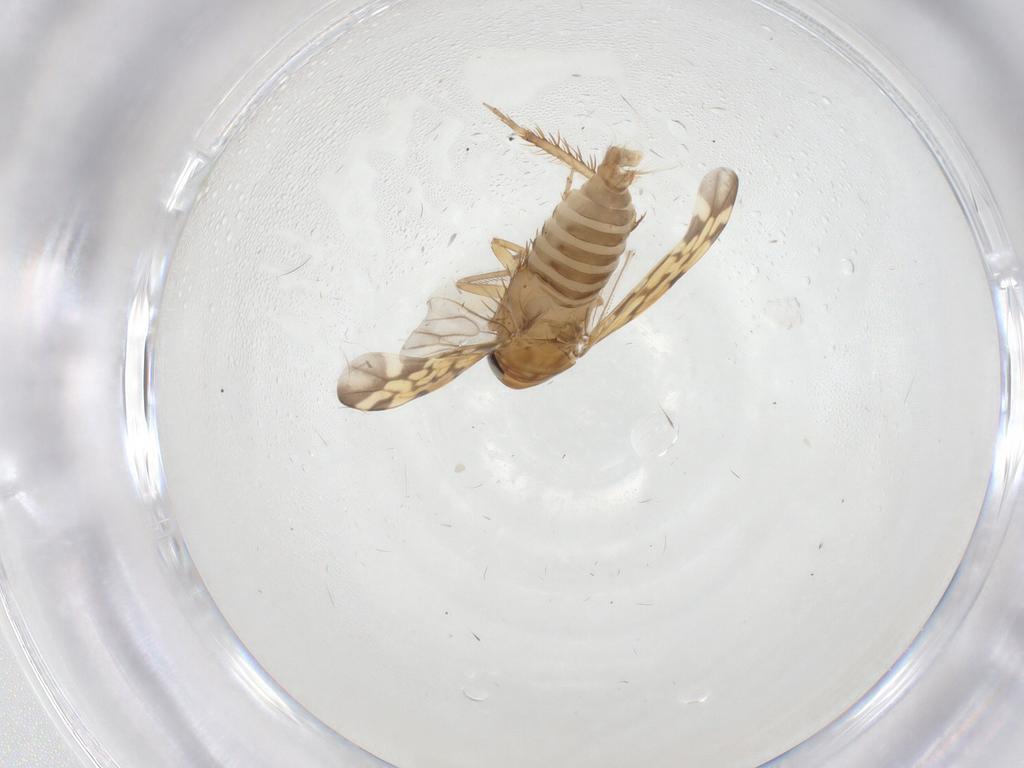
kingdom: Animalia
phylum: Arthropoda
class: Insecta
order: Hemiptera
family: Cicadellidae
